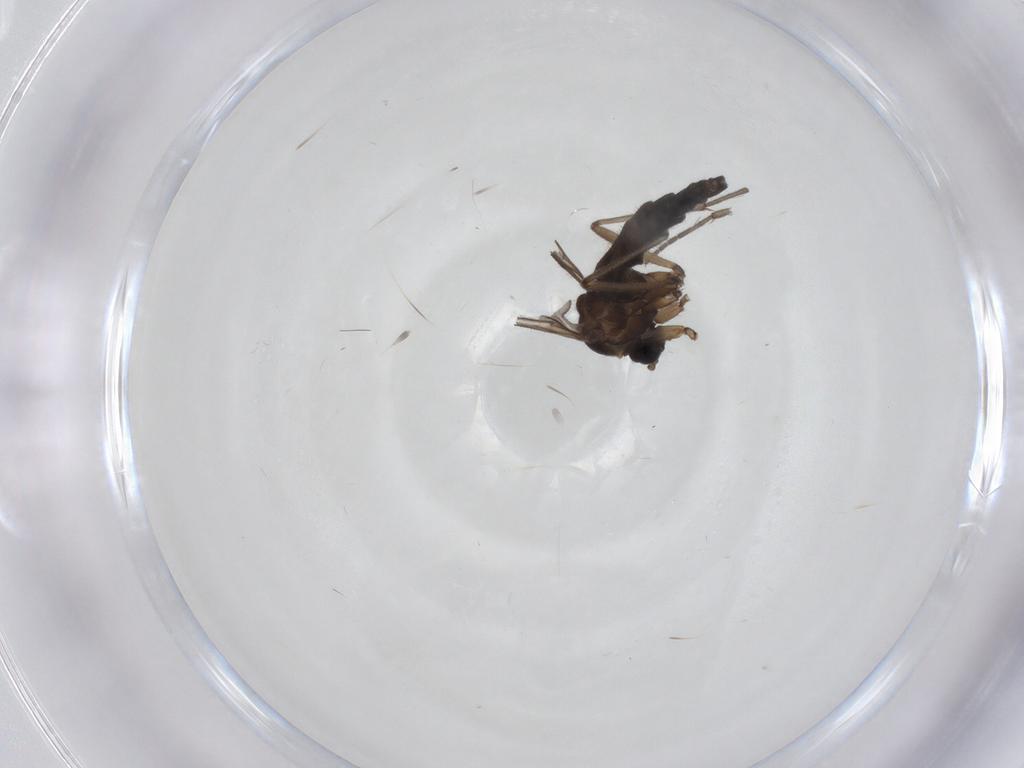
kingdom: Animalia
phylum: Arthropoda
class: Insecta
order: Diptera
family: Sciaridae
